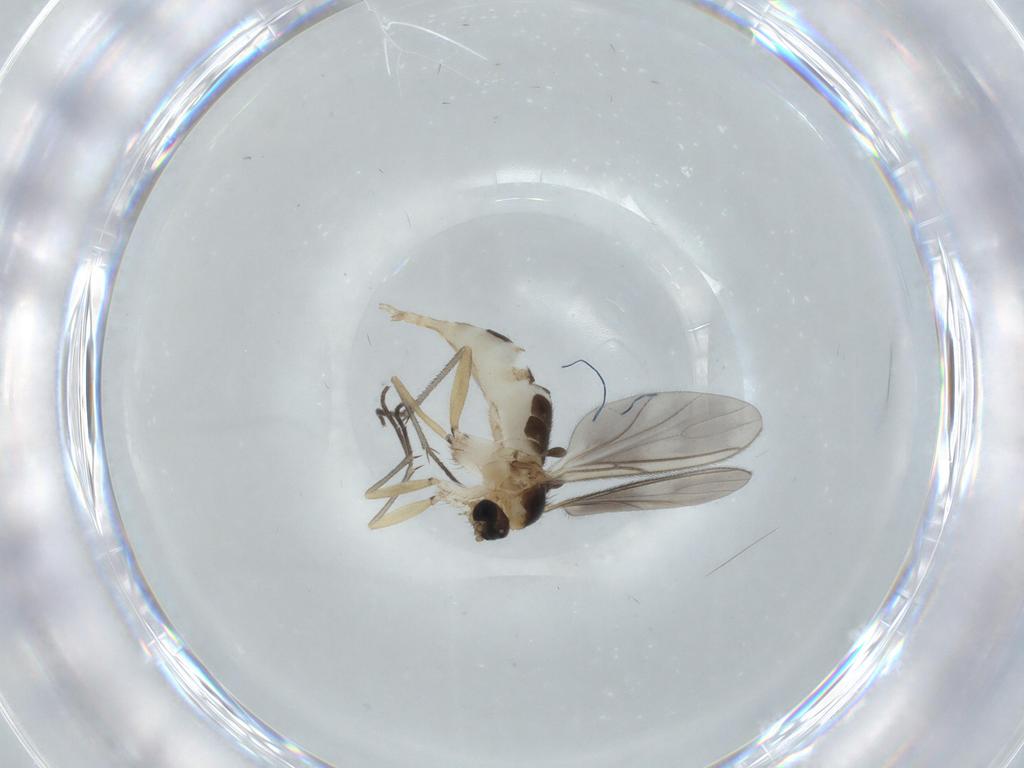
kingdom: Animalia
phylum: Arthropoda
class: Insecta
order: Diptera
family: Sciaridae
